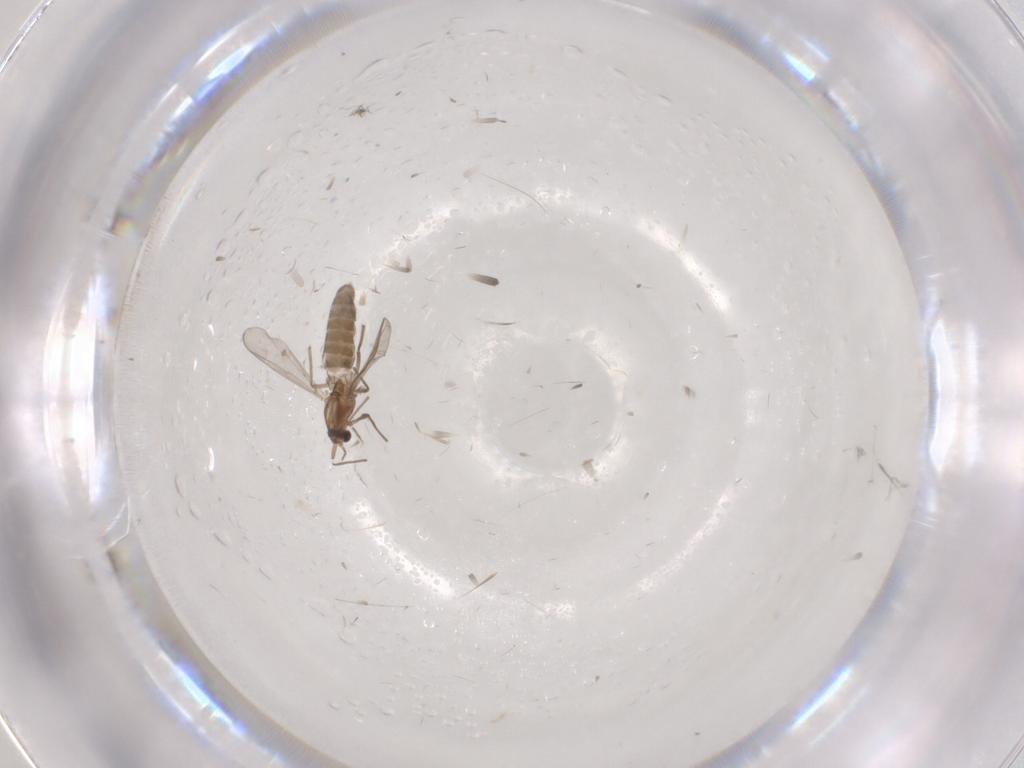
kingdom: Animalia
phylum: Arthropoda
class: Insecta
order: Diptera
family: Chironomidae
